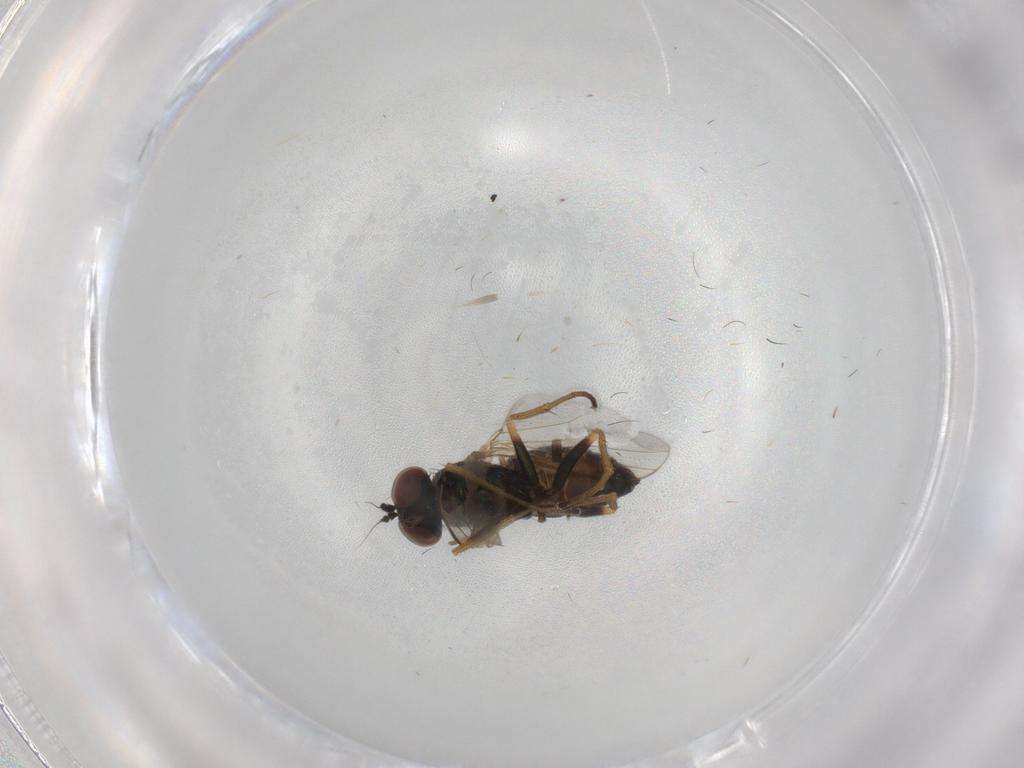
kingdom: Animalia
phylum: Arthropoda
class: Insecta
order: Diptera
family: Dolichopodidae
